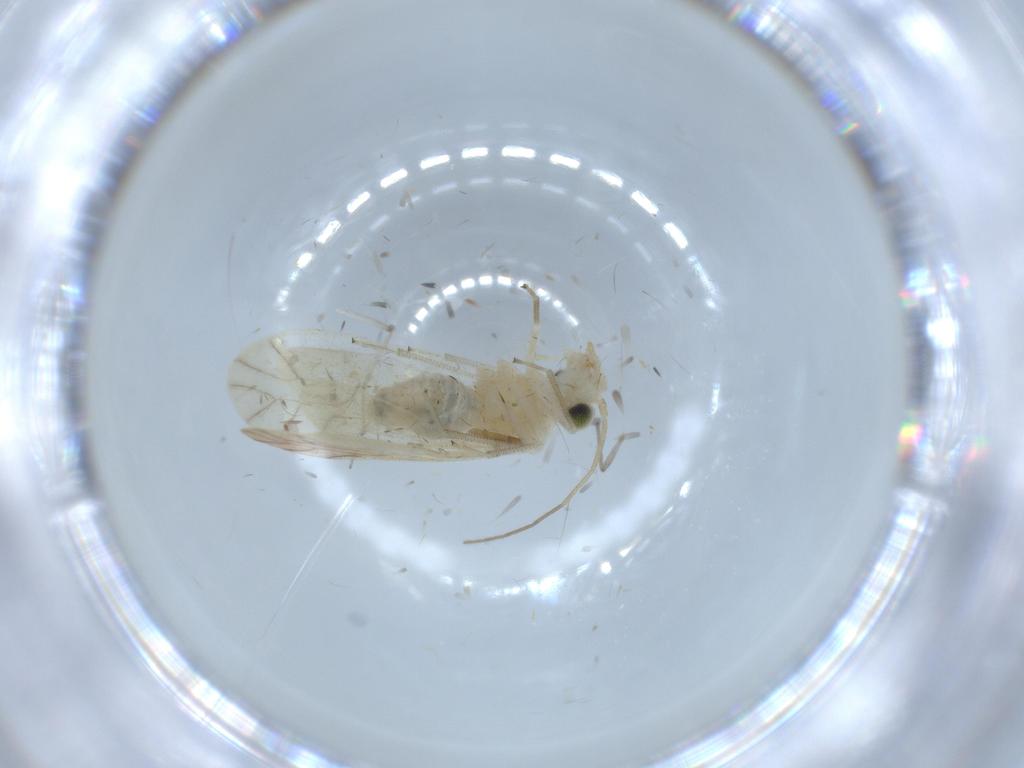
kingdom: Animalia
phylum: Arthropoda
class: Insecta
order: Psocodea
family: Caeciliusidae
